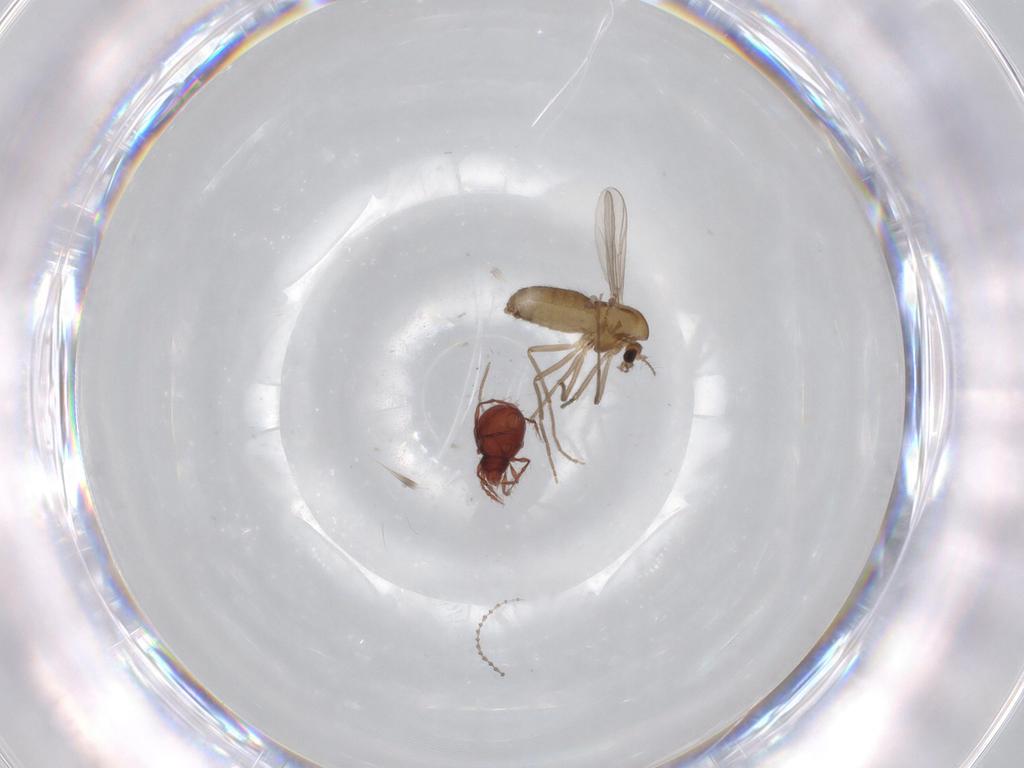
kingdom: Animalia
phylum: Arthropoda
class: Insecta
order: Diptera
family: Chironomidae
